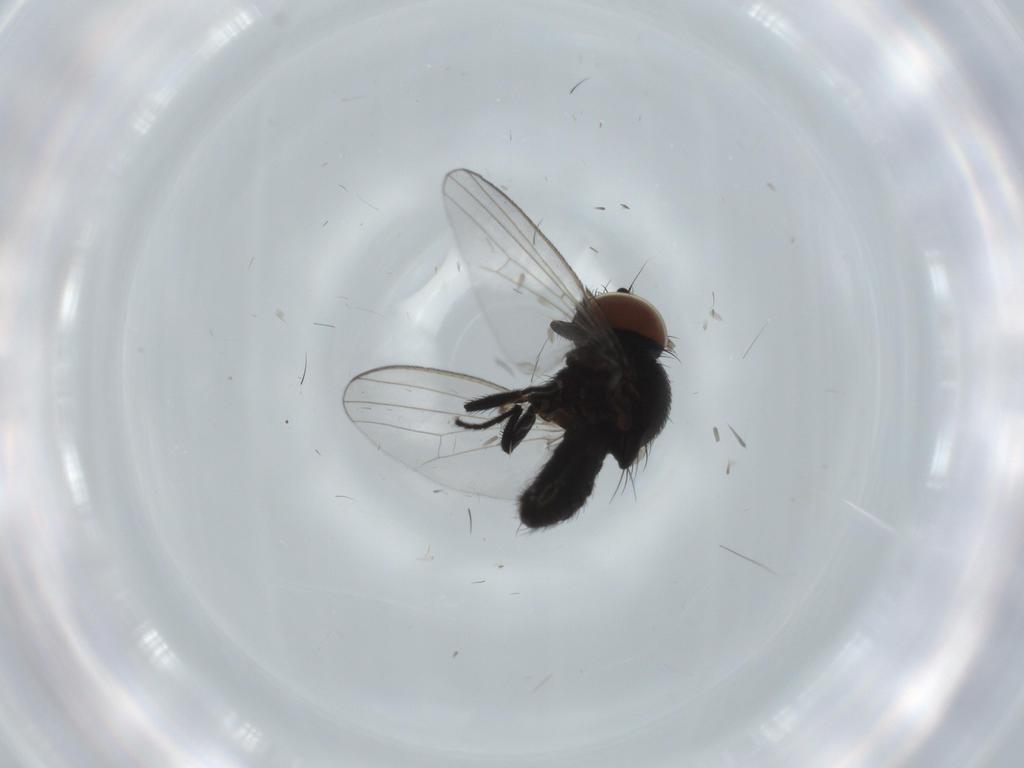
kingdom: Animalia
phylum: Arthropoda
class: Insecta
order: Diptera
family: Milichiidae
